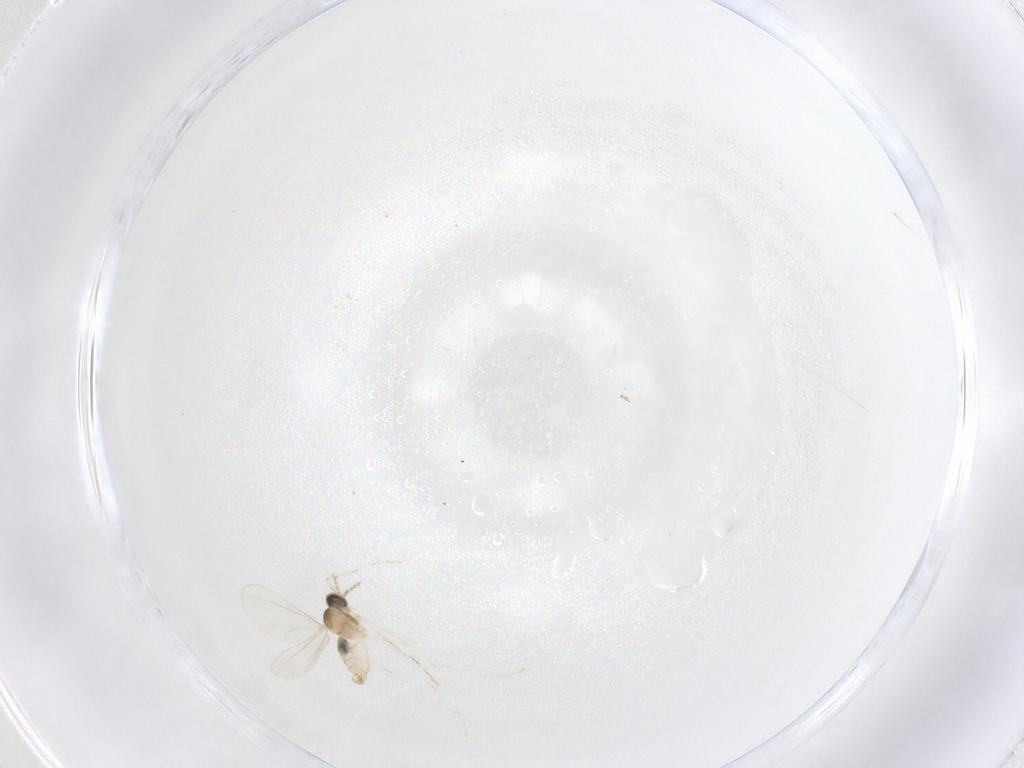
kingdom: Animalia
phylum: Arthropoda
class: Insecta
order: Diptera
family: Cecidomyiidae
